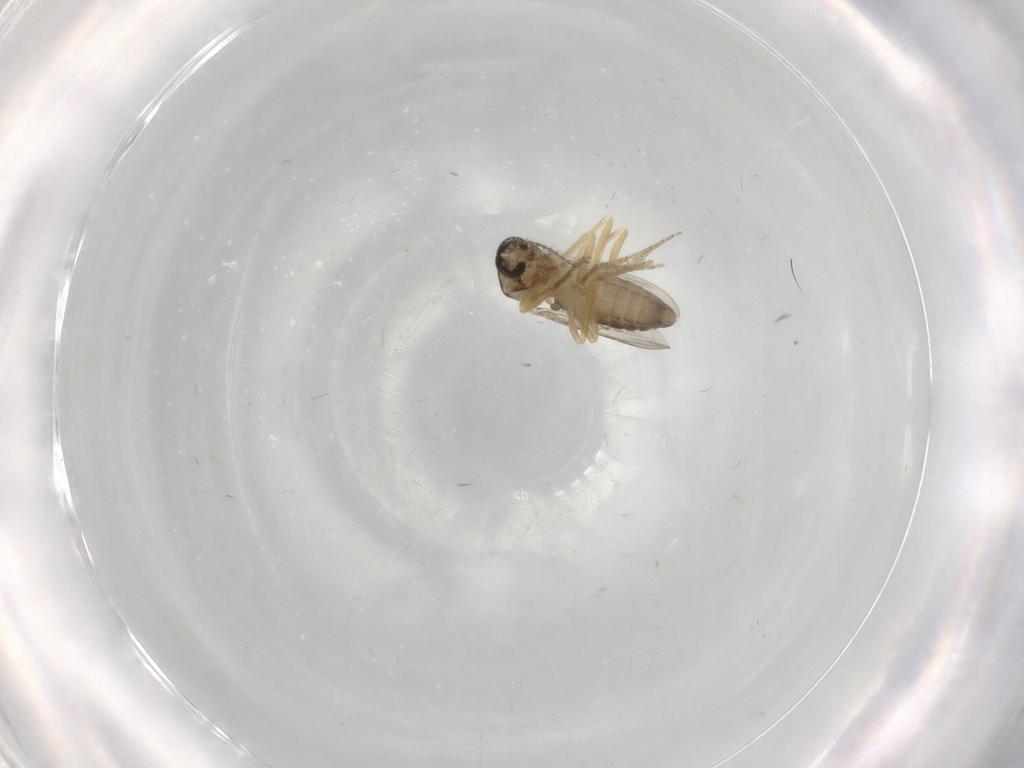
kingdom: Animalia
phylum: Arthropoda
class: Insecta
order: Diptera
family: Ceratopogonidae
